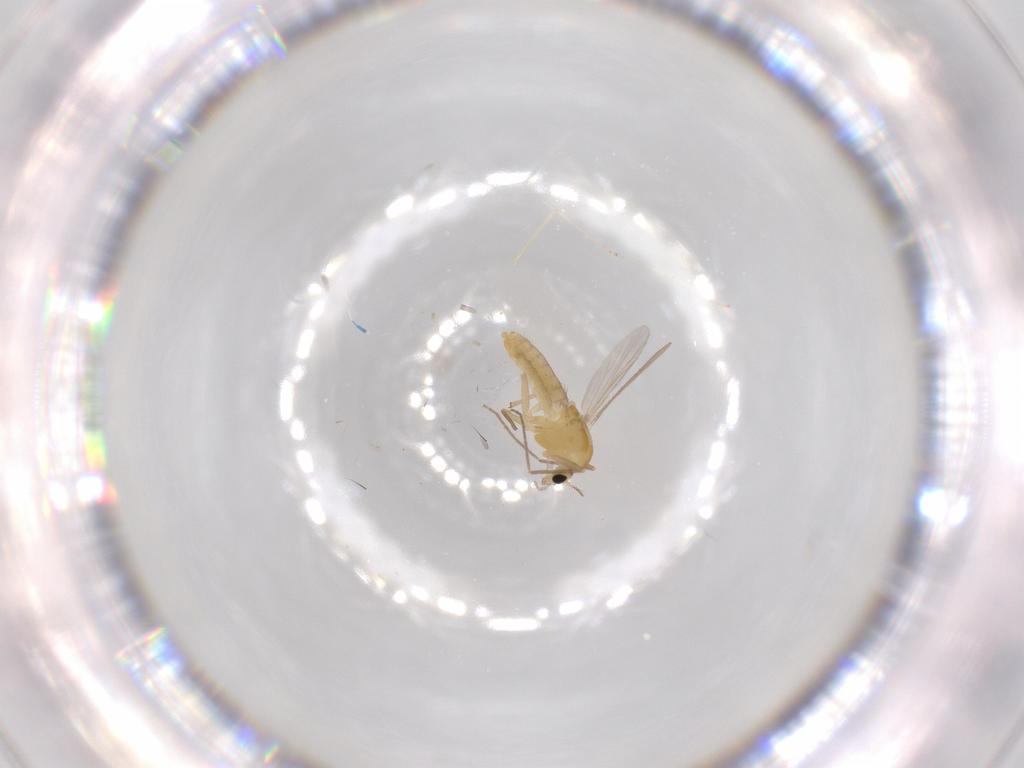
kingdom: Animalia
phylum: Arthropoda
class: Insecta
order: Diptera
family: Chironomidae
